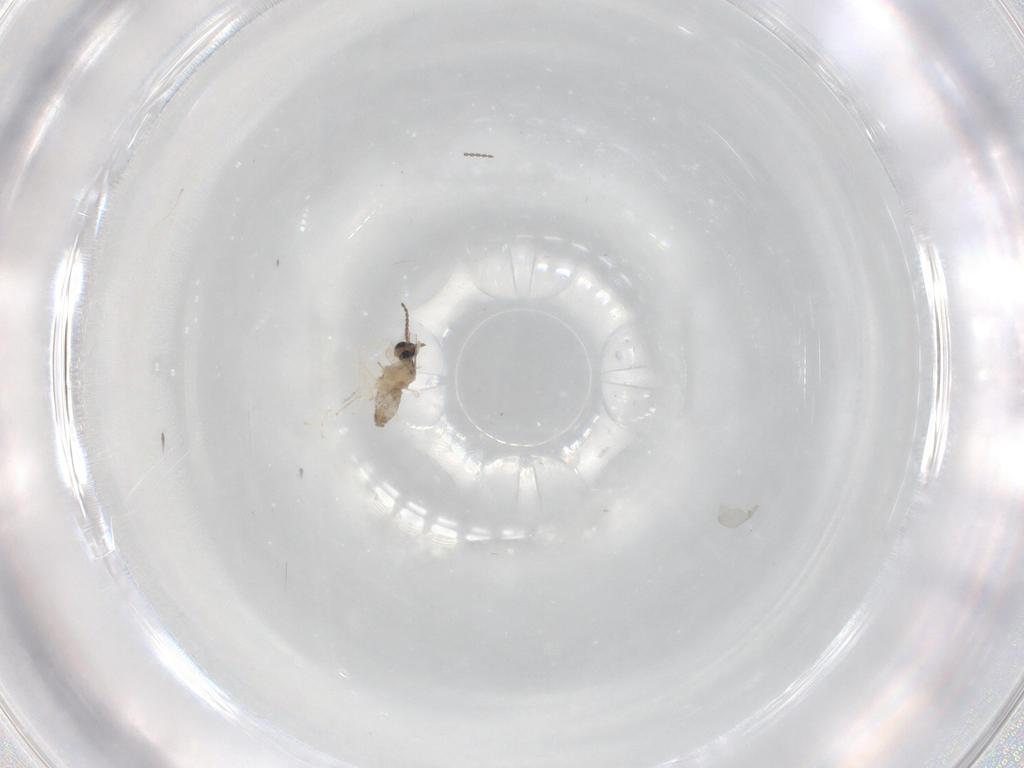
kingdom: Animalia
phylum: Arthropoda
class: Insecta
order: Diptera
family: Cecidomyiidae
